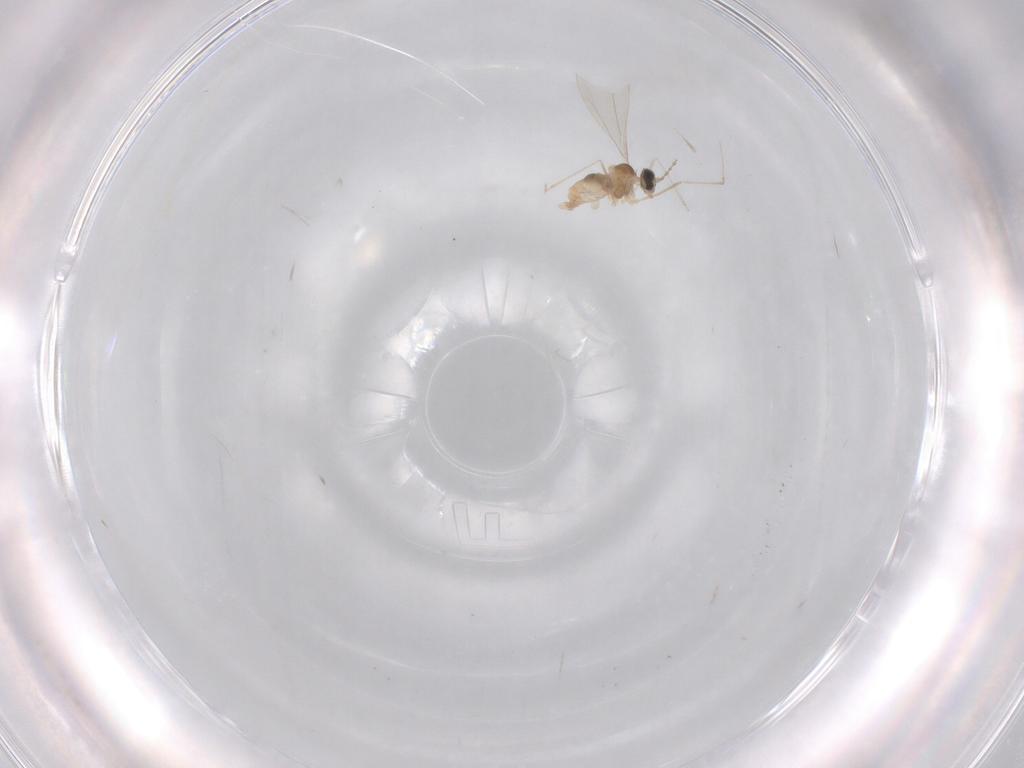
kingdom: Animalia
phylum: Arthropoda
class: Insecta
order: Diptera
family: Cecidomyiidae
